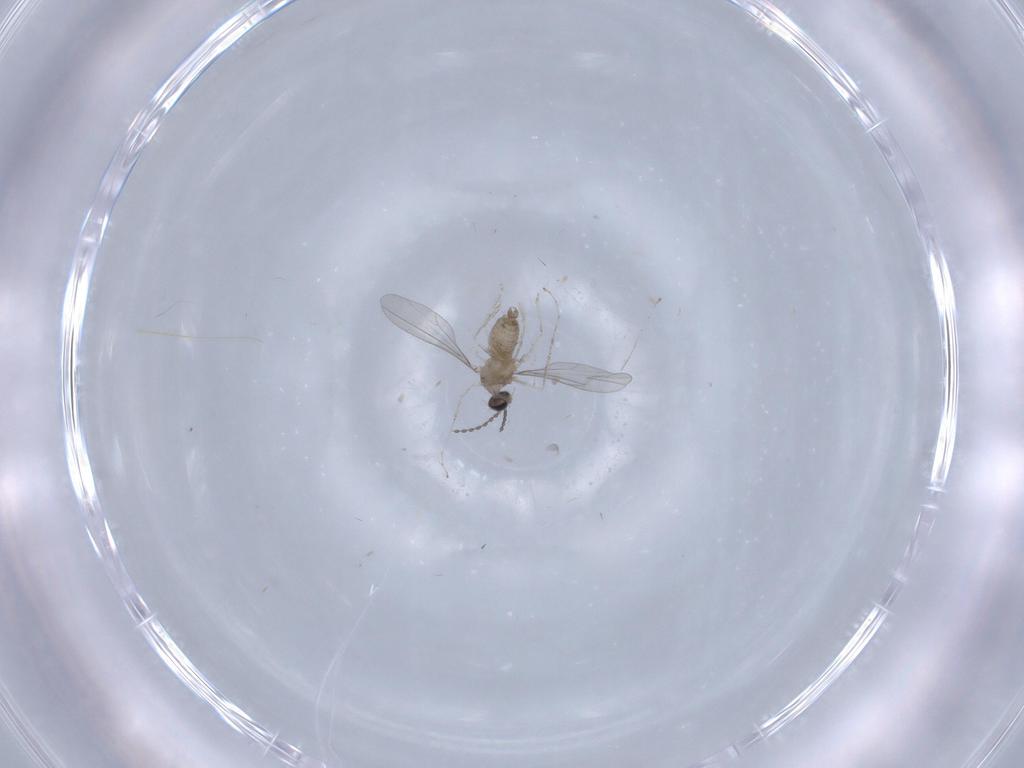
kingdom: Animalia
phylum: Arthropoda
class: Insecta
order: Diptera
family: Cecidomyiidae
